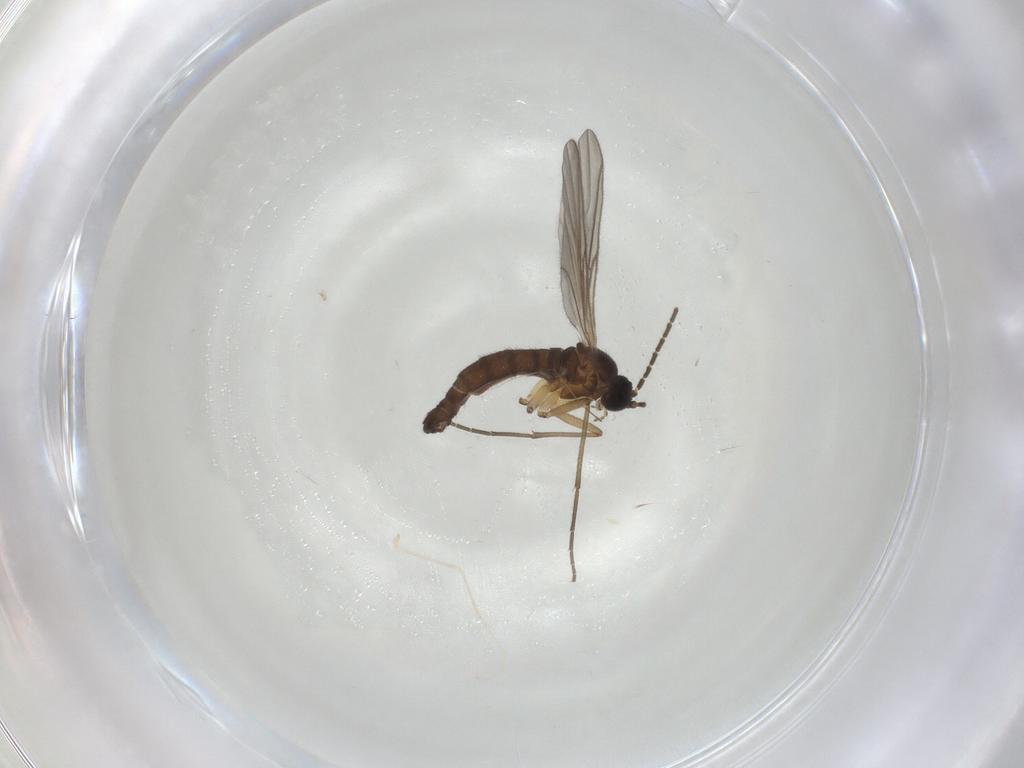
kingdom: Animalia
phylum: Arthropoda
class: Insecta
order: Diptera
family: Sciaridae
